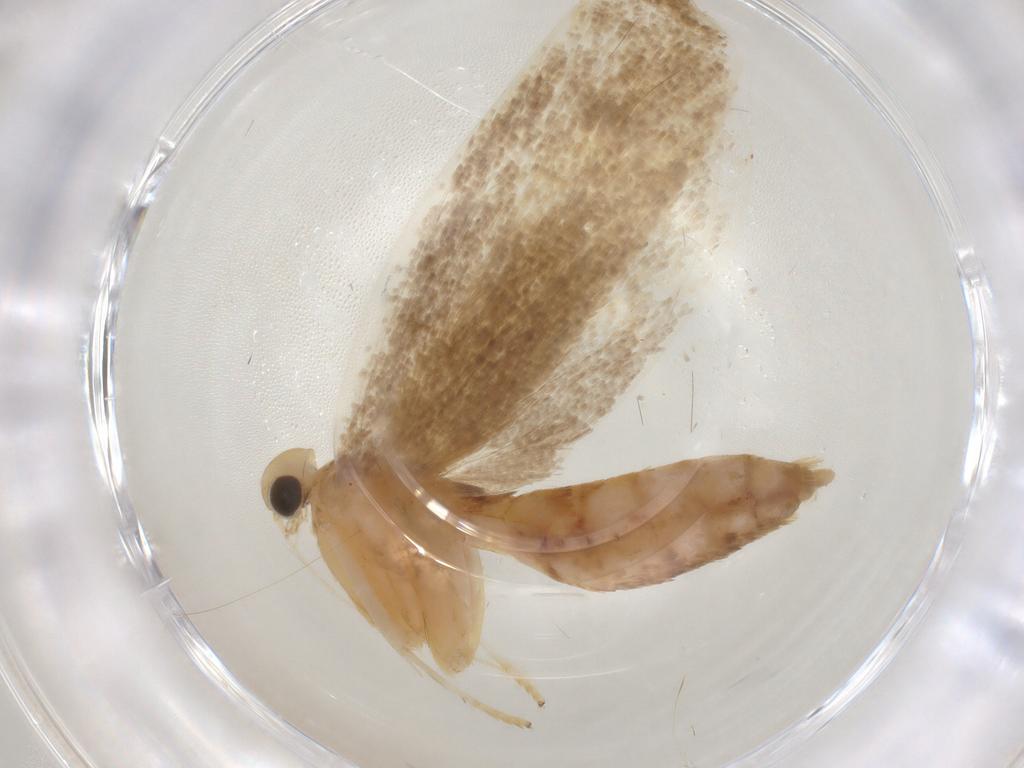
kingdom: Animalia
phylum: Arthropoda
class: Insecta
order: Lepidoptera
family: Lecithoceridae
